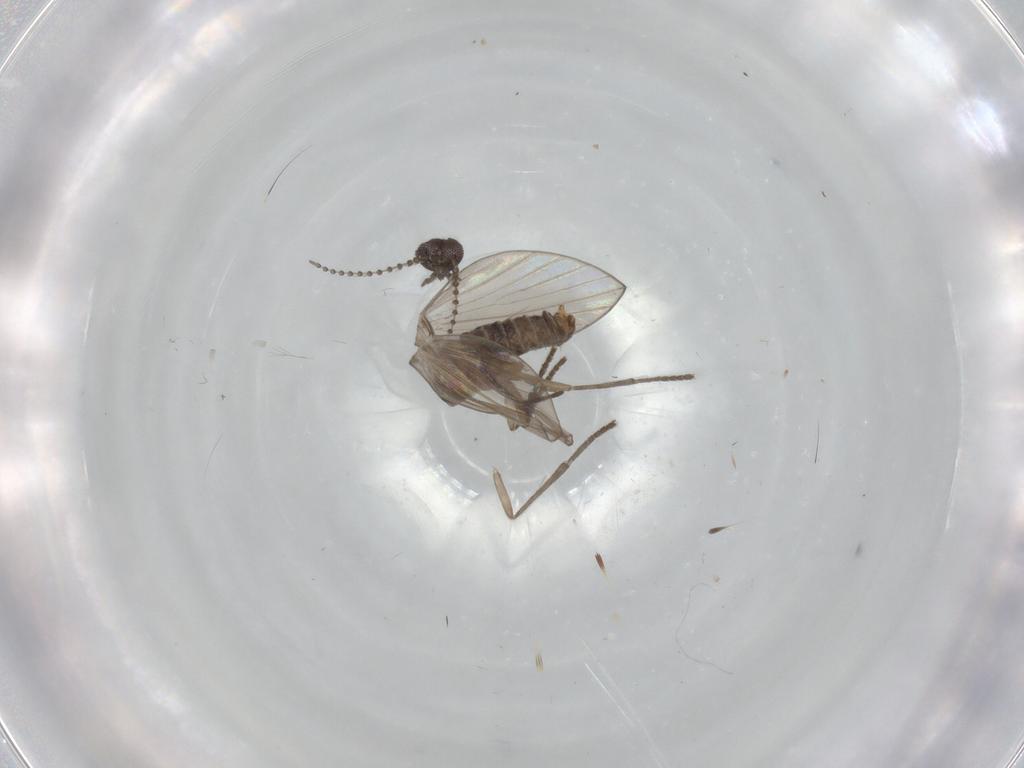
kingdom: Animalia
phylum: Arthropoda
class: Insecta
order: Diptera
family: Psychodidae
